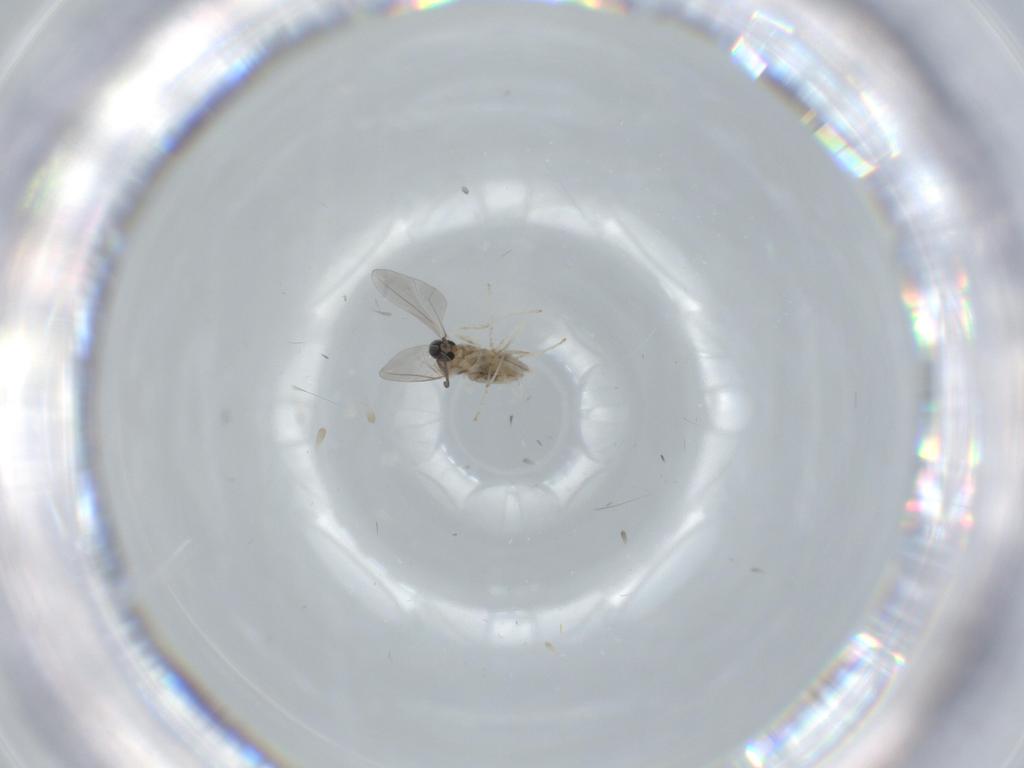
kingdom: Animalia
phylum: Arthropoda
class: Insecta
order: Diptera
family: Cecidomyiidae
